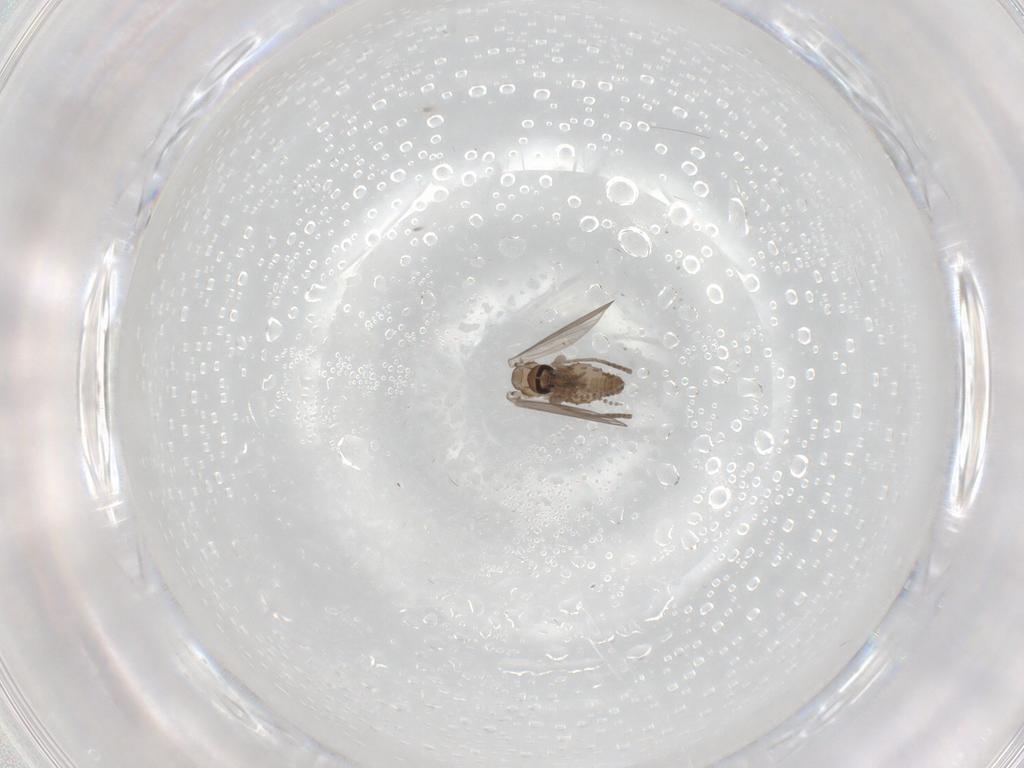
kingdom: Animalia
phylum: Arthropoda
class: Insecta
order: Diptera
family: Psychodidae
